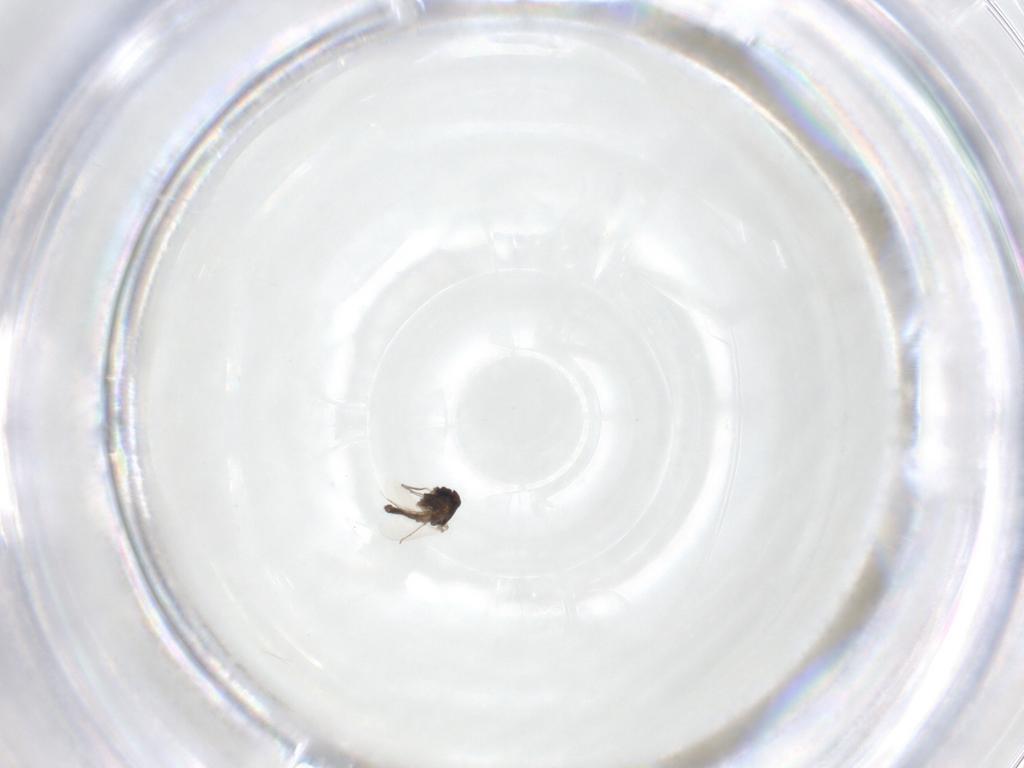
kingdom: Animalia
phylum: Arthropoda
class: Insecta
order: Diptera
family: Chironomidae
